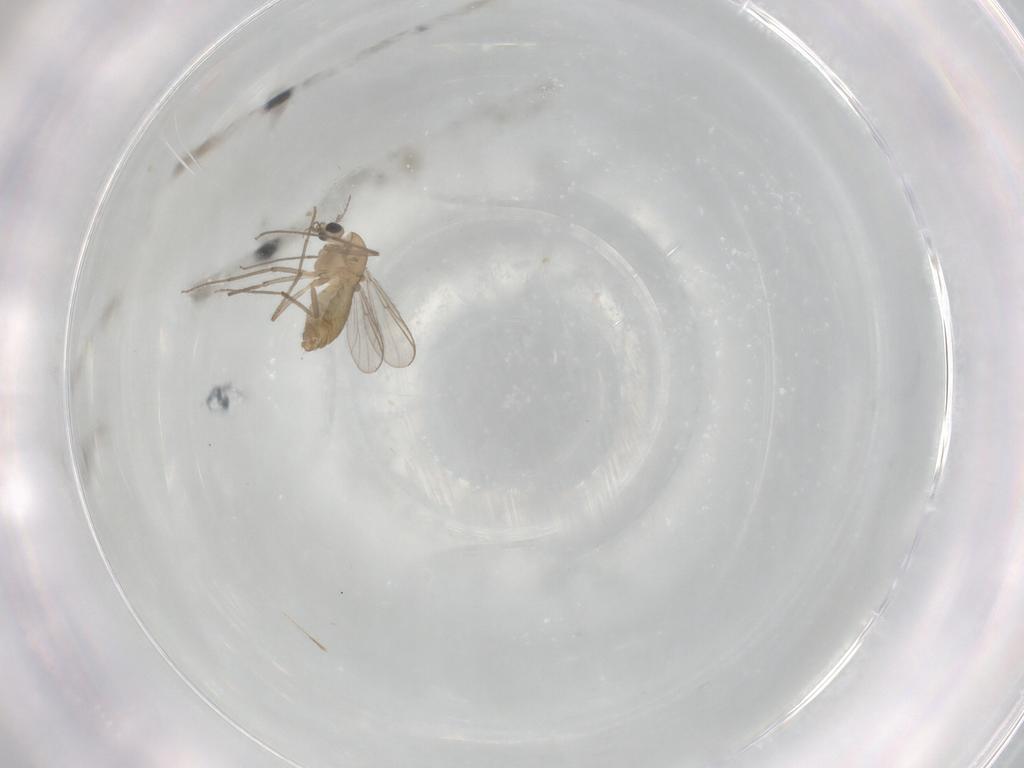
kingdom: Animalia
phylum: Arthropoda
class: Insecta
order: Diptera
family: Chironomidae
